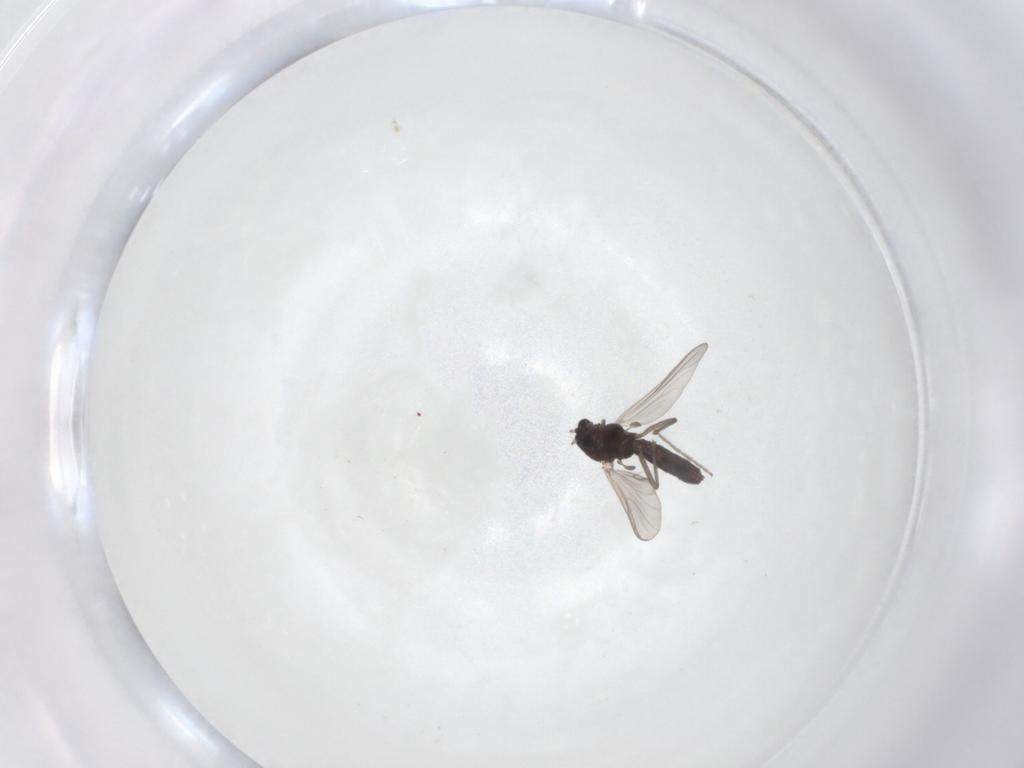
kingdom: Animalia
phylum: Arthropoda
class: Insecta
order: Diptera
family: Chironomidae
